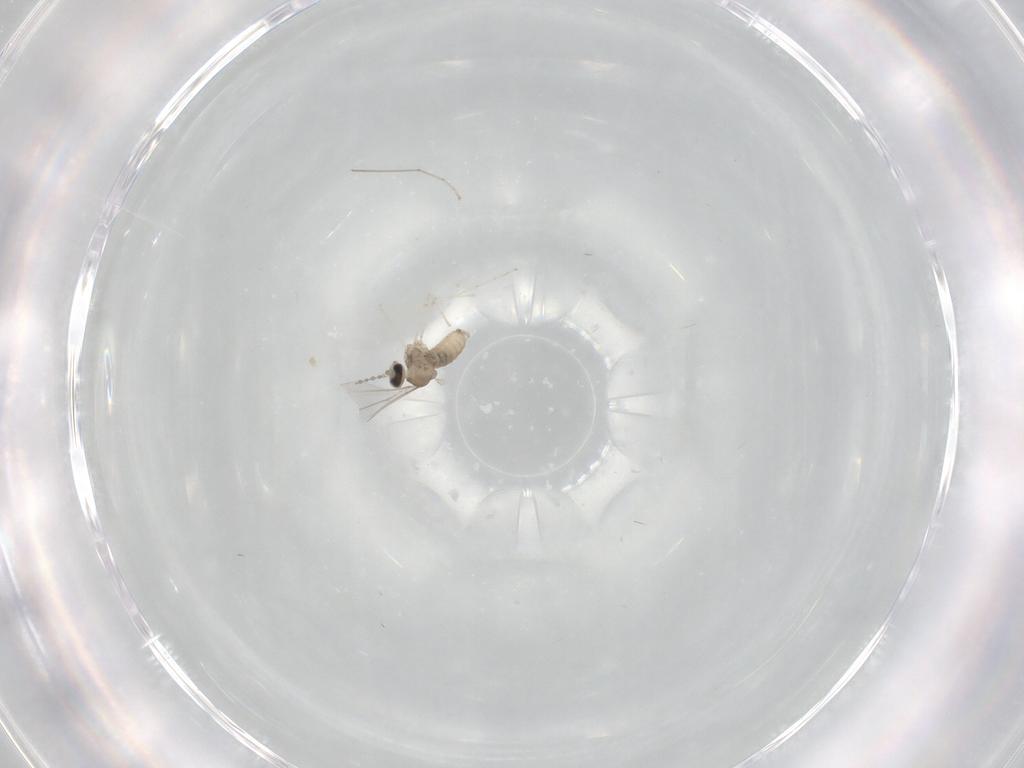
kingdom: Animalia
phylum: Arthropoda
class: Insecta
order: Diptera
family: Cecidomyiidae
